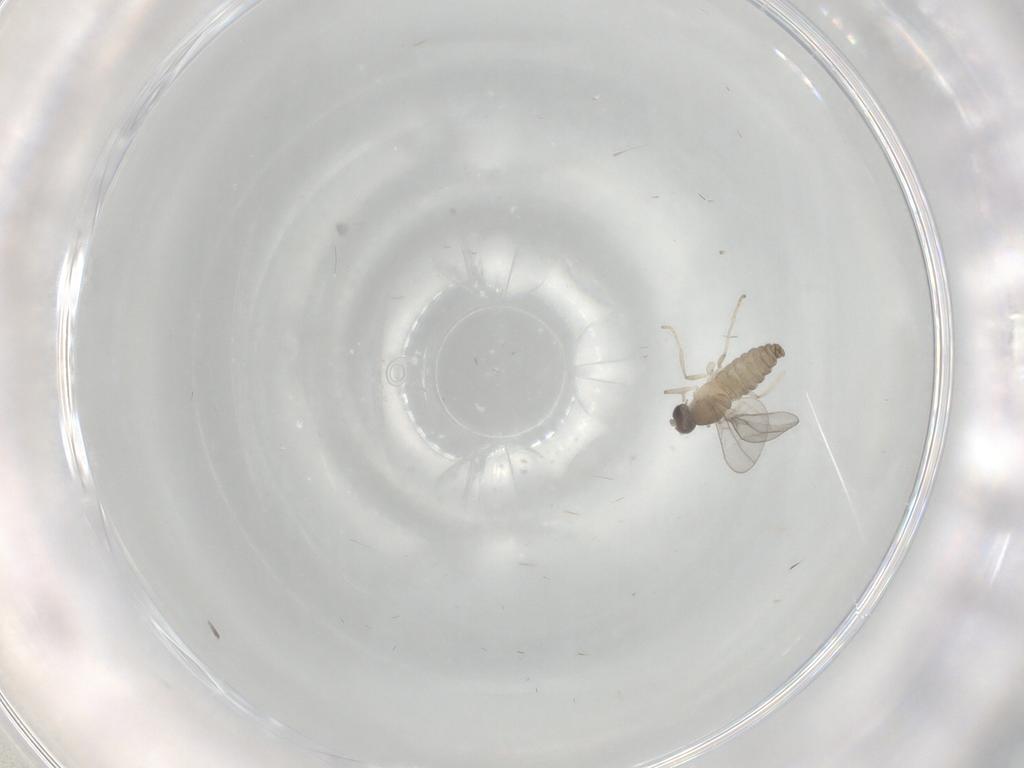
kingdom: Animalia
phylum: Arthropoda
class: Insecta
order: Diptera
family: Cecidomyiidae
